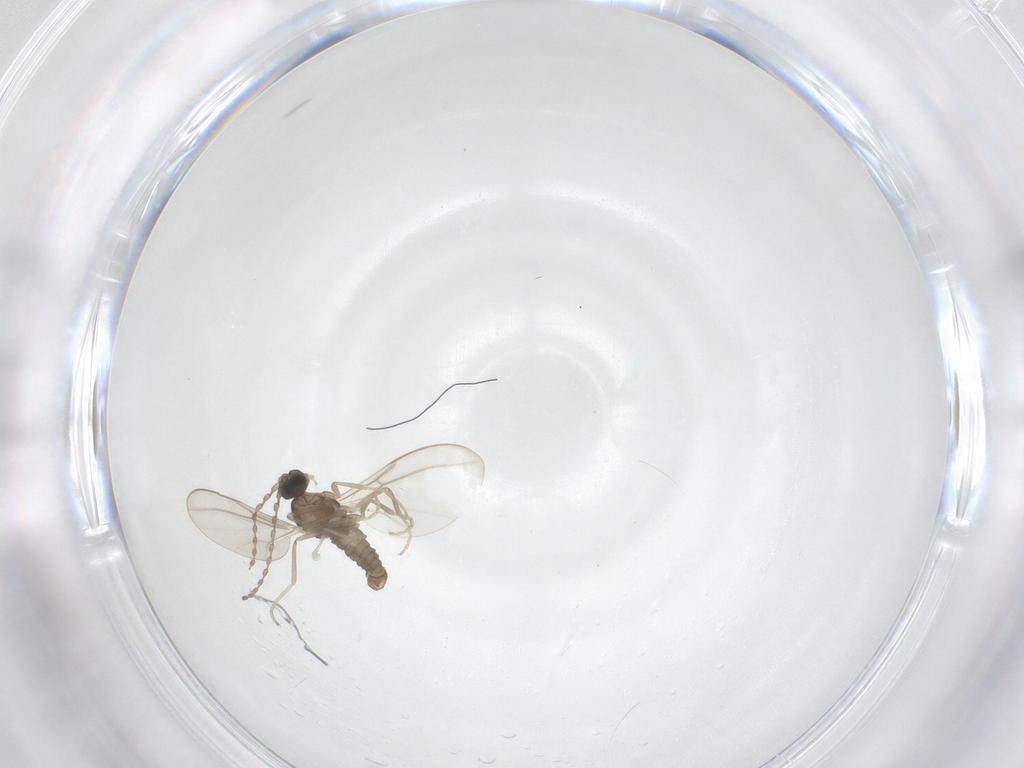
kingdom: Animalia
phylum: Arthropoda
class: Insecta
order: Diptera
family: Cecidomyiidae
